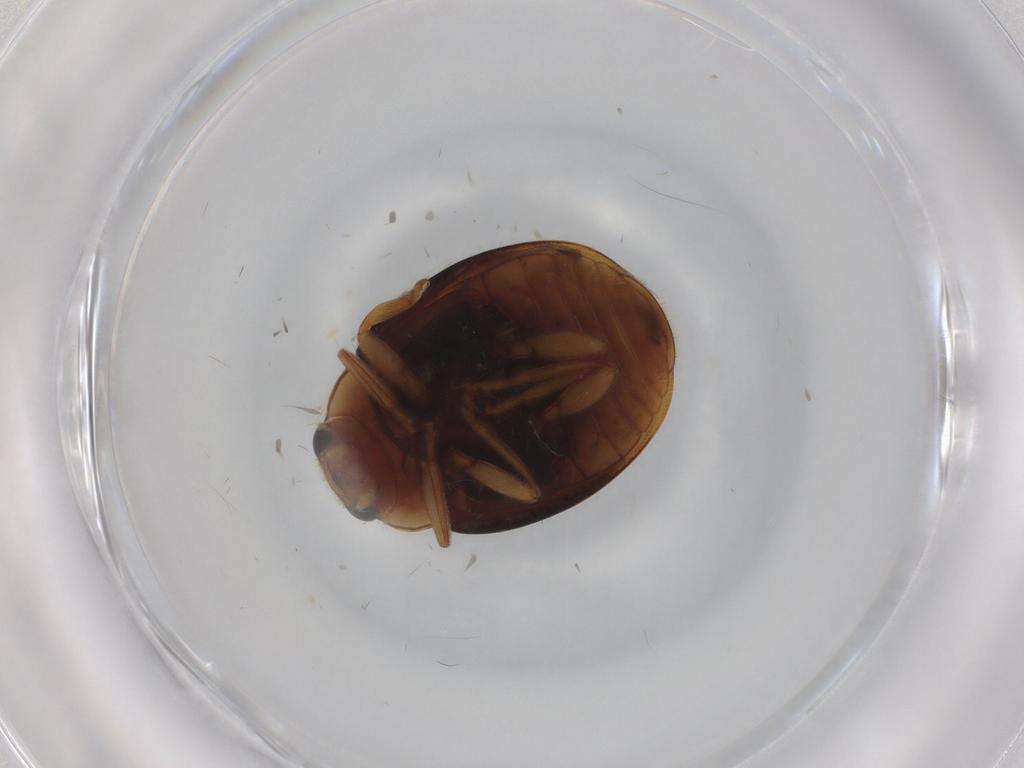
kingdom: Animalia
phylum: Arthropoda
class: Insecta
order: Coleoptera
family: Coccinellidae
